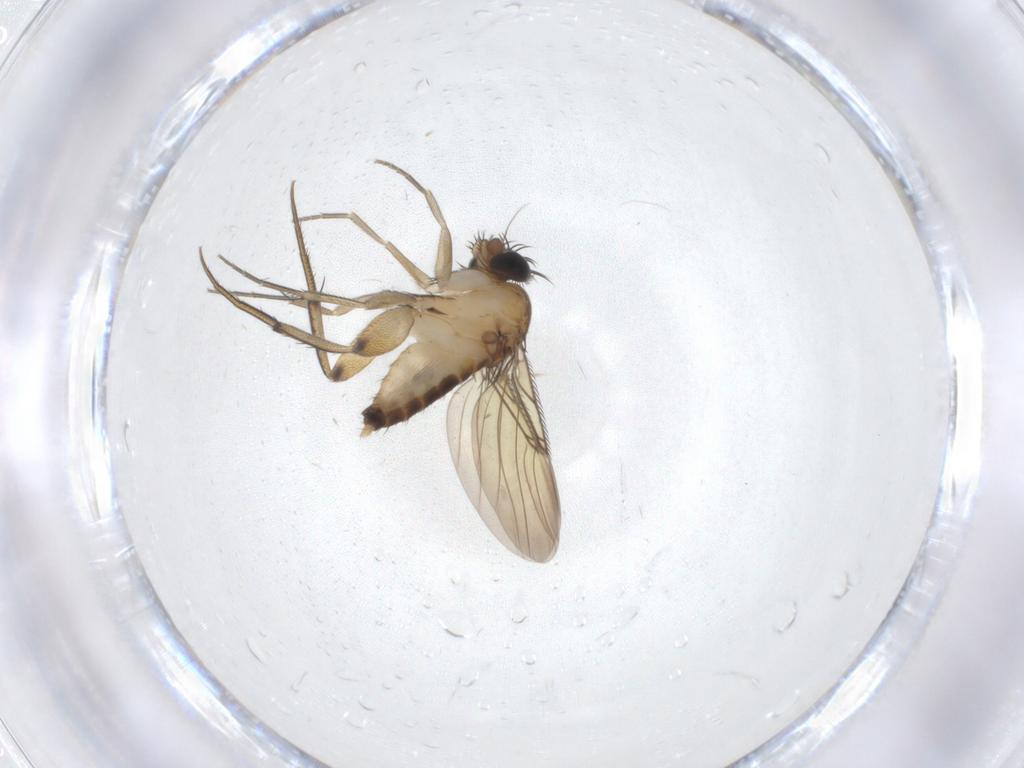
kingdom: Animalia
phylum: Arthropoda
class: Insecta
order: Diptera
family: Phoridae
